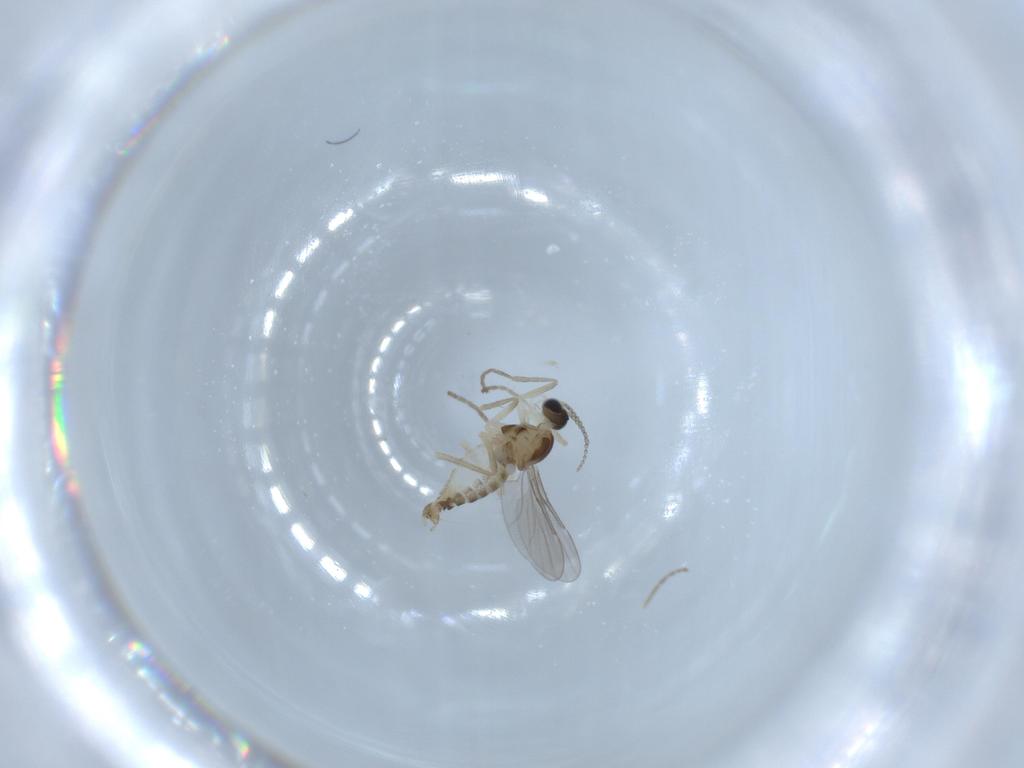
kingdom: Animalia
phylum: Arthropoda
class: Insecta
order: Diptera
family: Cecidomyiidae
